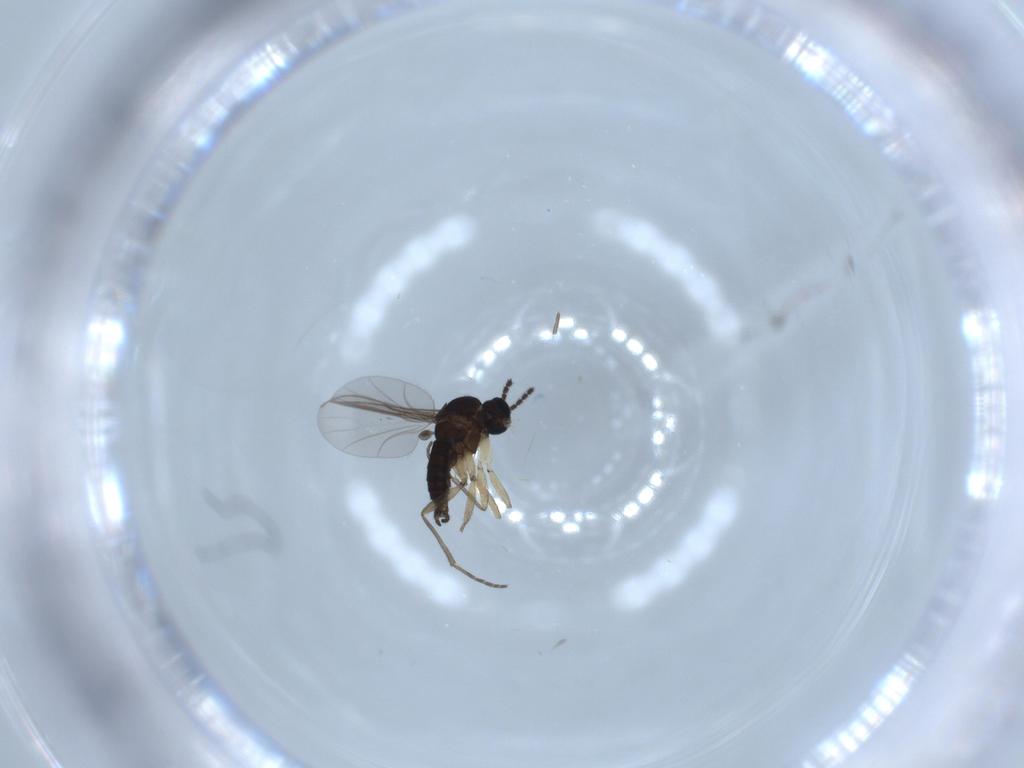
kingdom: Animalia
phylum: Arthropoda
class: Insecta
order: Diptera
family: Sciaridae
